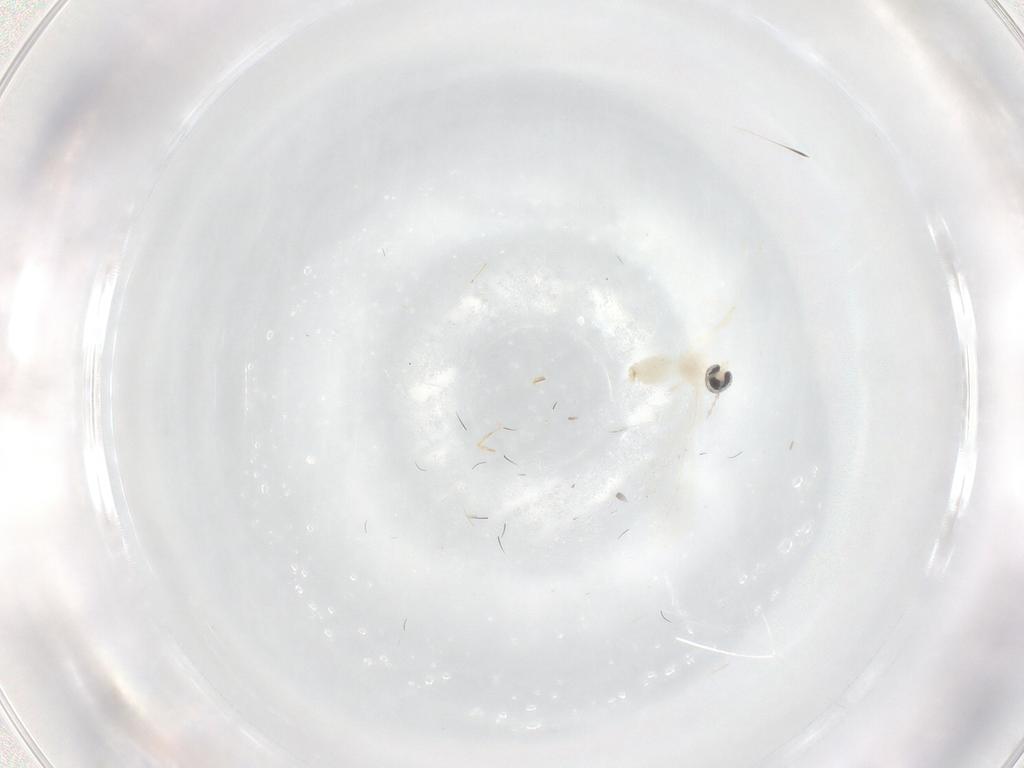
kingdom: Animalia
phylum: Arthropoda
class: Insecta
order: Diptera
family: Cecidomyiidae
